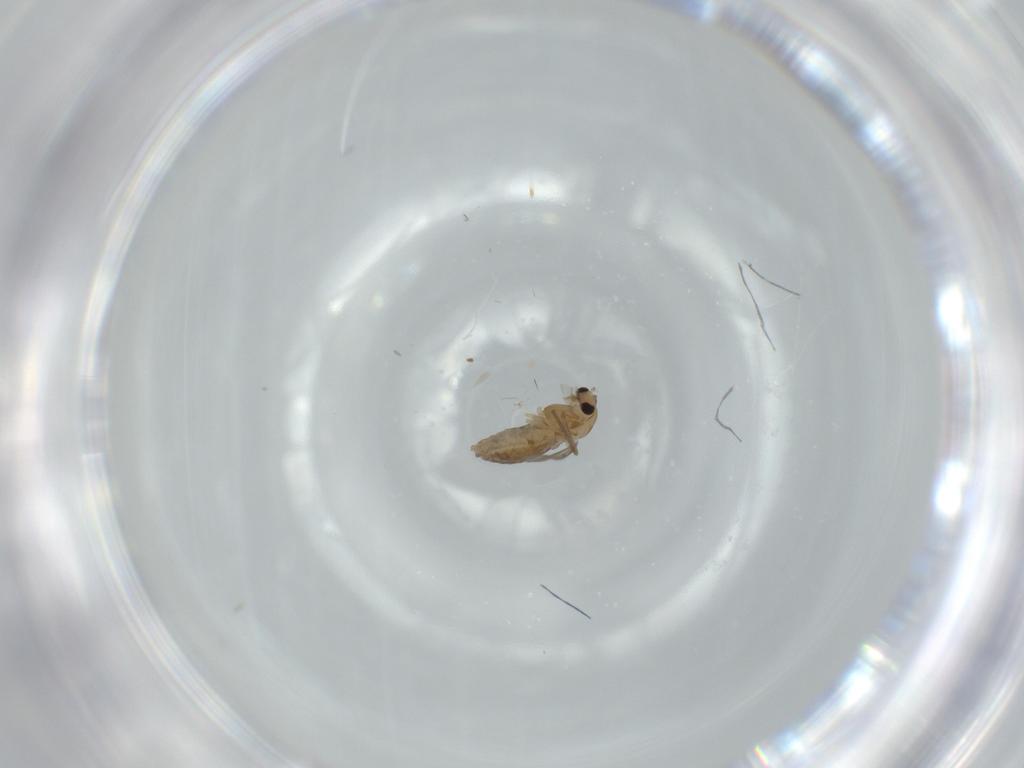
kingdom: Animalia
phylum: Arthropoda
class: Insecta
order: Diptera
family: Chironomidae
